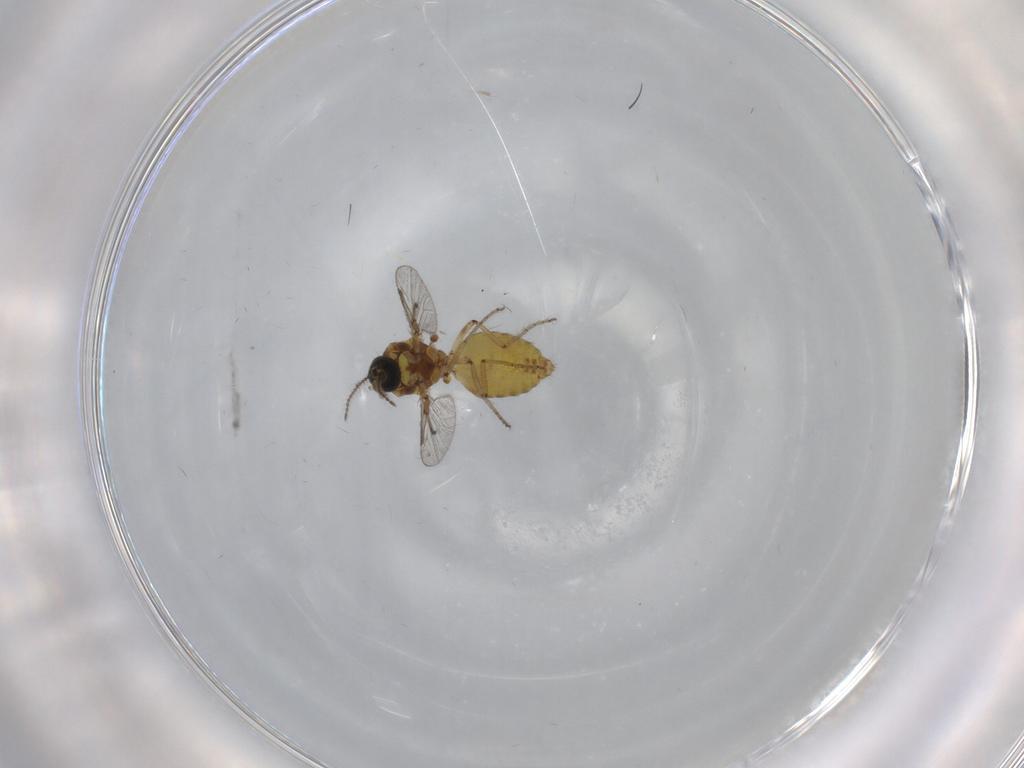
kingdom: Animalia
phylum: Arthropoda
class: Insecta
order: Diptera
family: Ceratopogonidae
